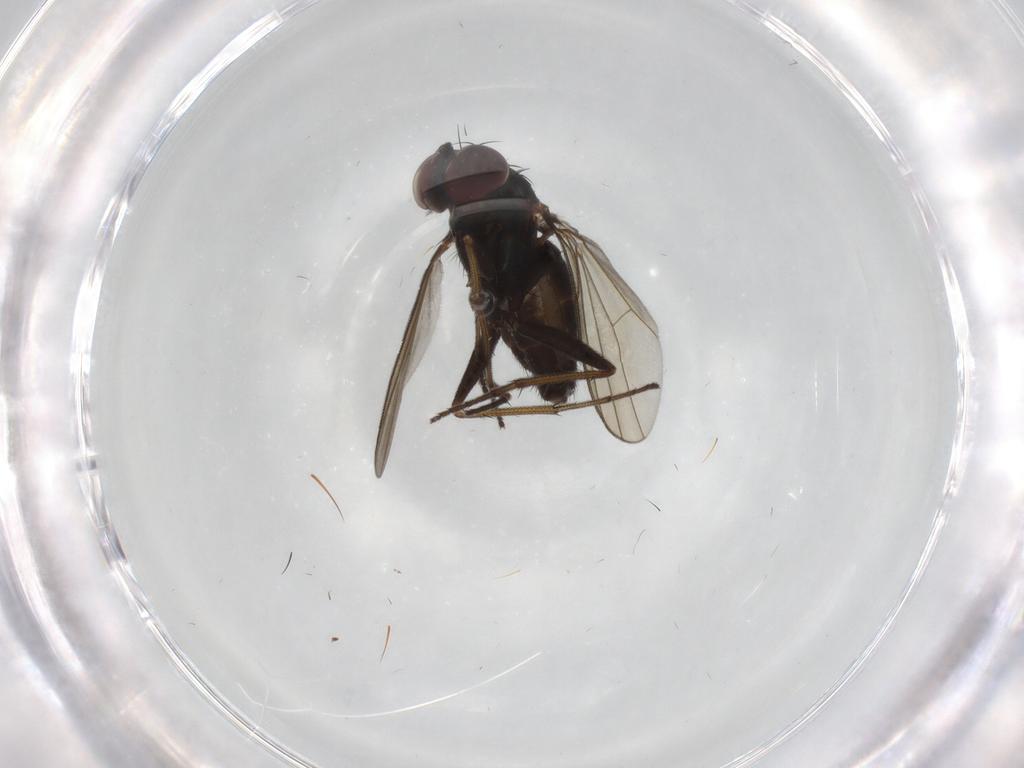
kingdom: Animalia
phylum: Arthropoda
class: Insecta
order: Diptera
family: Dolichopodidae
